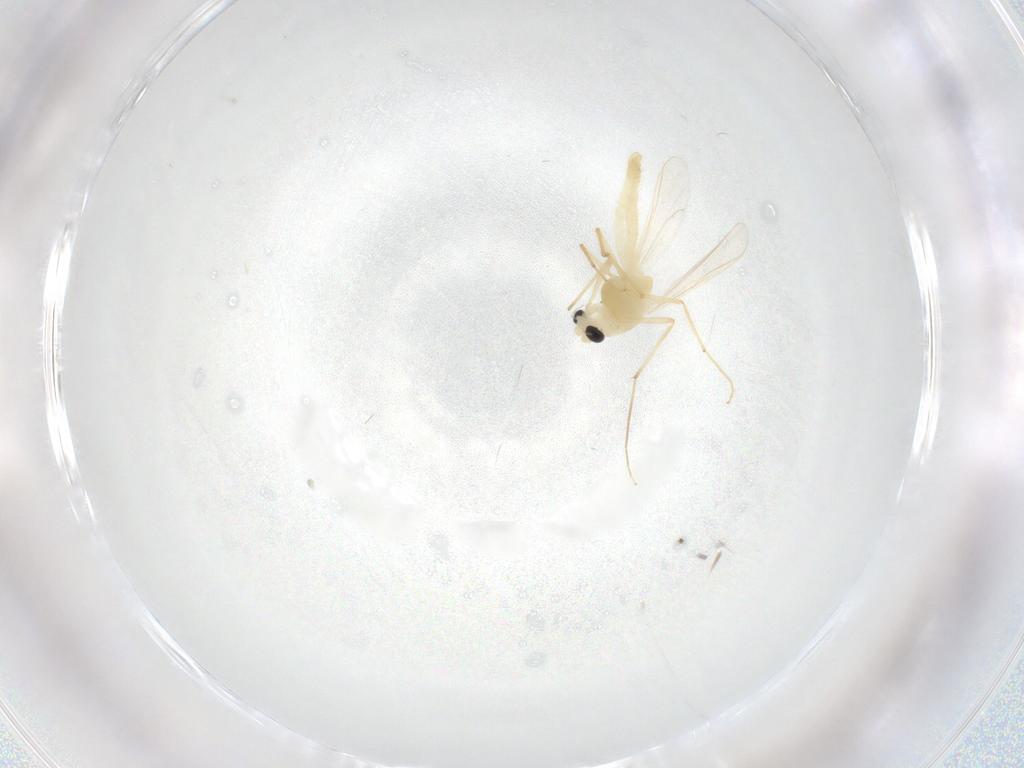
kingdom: Animalia
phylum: Arthropoda
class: Insecta
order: Diptera
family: Chironomidae
